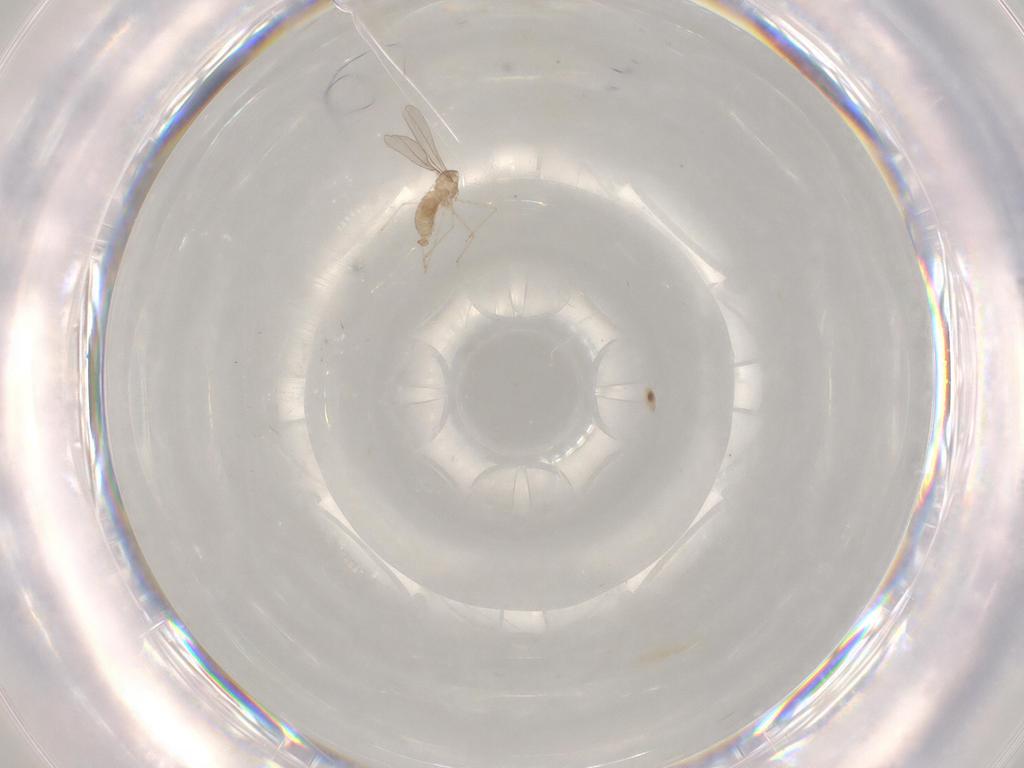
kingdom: Animalia
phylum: Arthropoda
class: Insecta
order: Diptera
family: Cecidomyiidae
